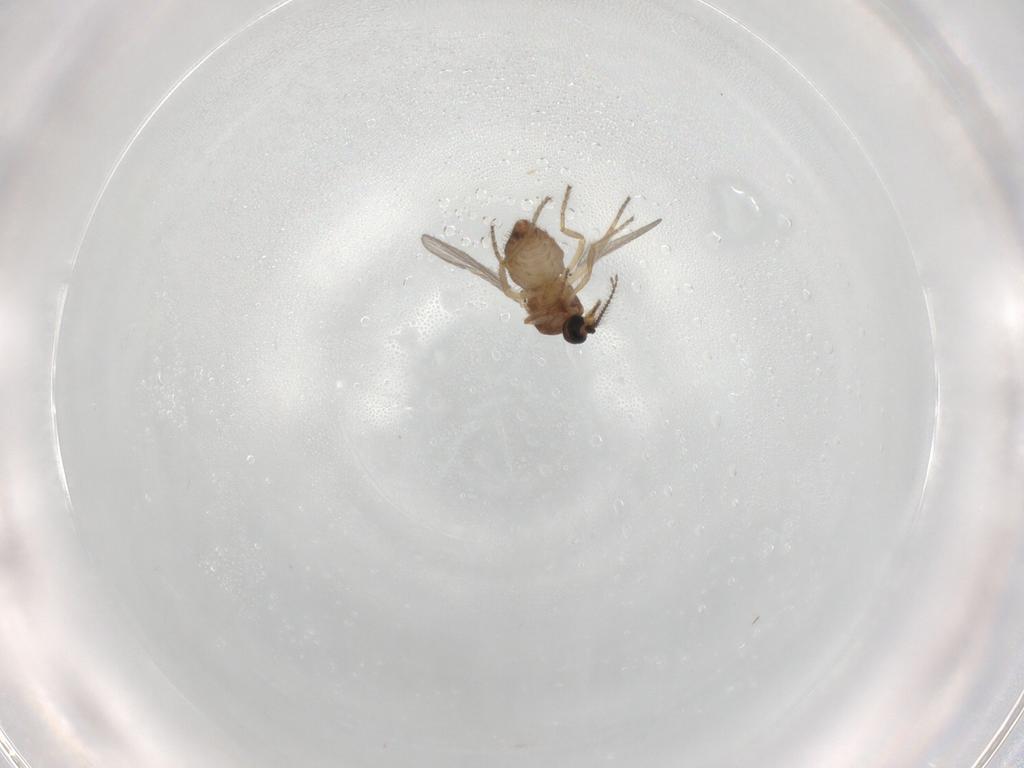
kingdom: Animalia
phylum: Arthropoda
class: Insecta
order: Diptera
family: Ceratopogonidae
